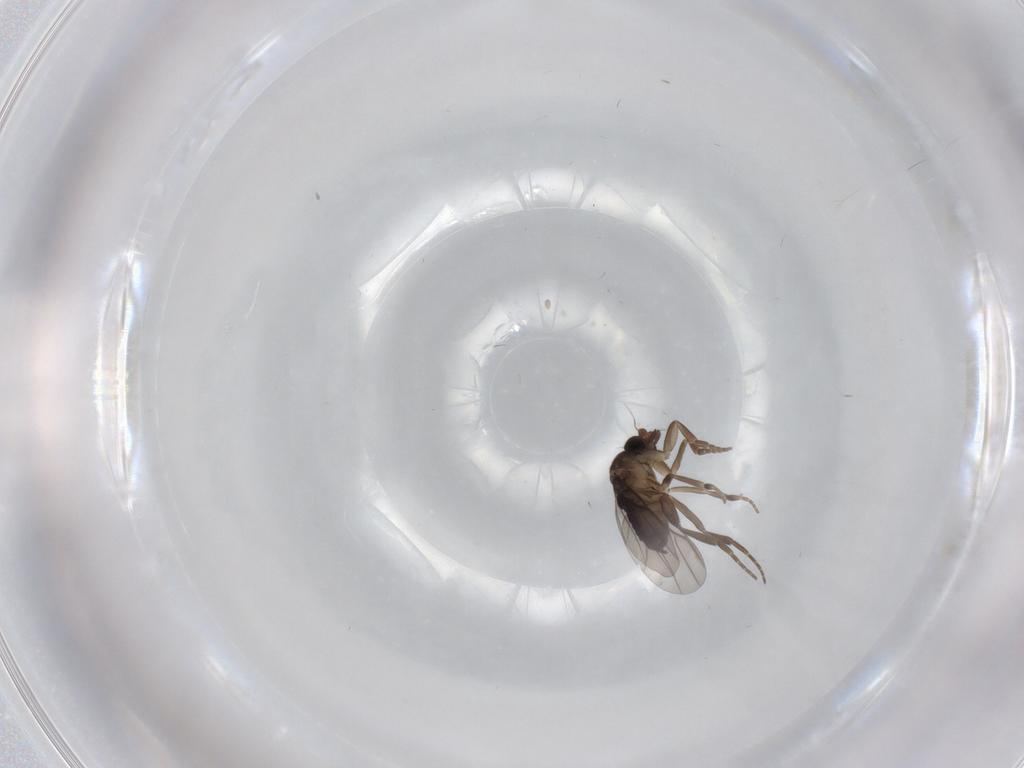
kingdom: Animalia
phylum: Arthropoda
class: Insecta
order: Diptera
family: Phoridae
